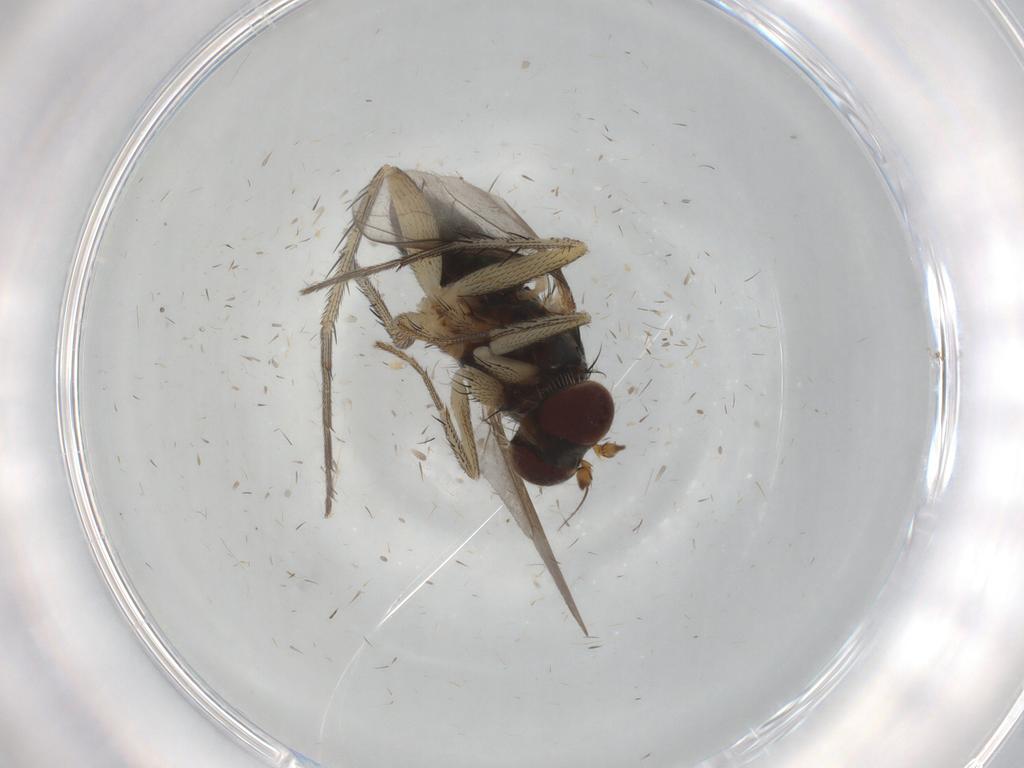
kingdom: Animalia
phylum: Arthropoda
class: Insecta
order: Diptera
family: Dolichopodidae
